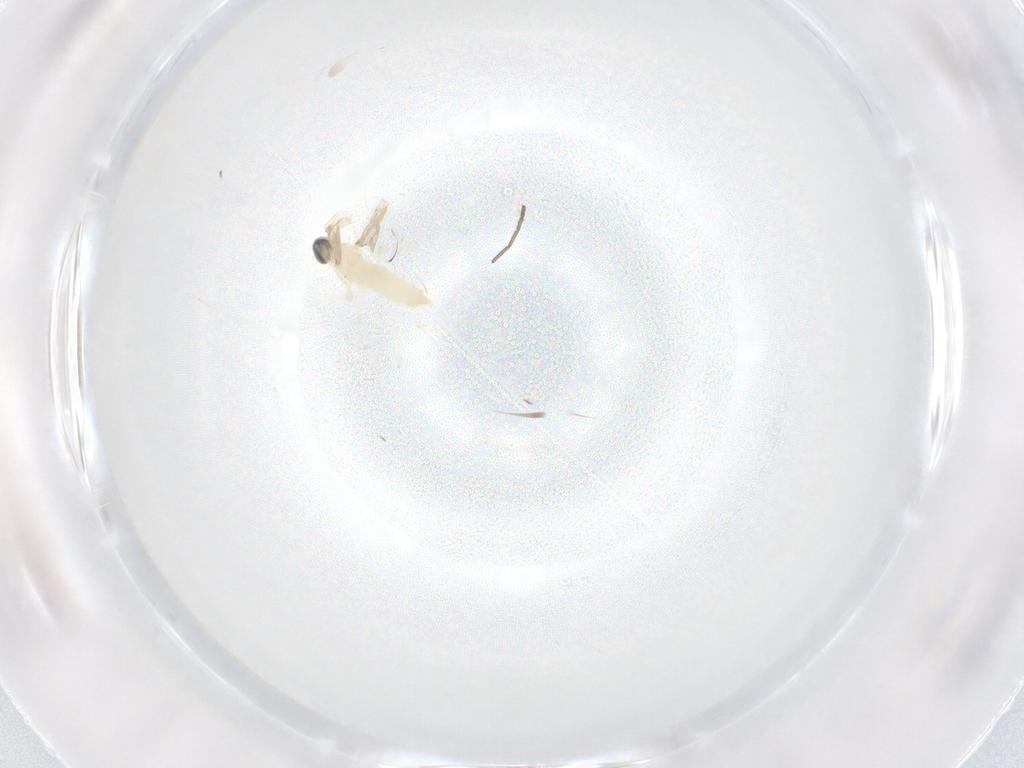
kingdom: Animalia
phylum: Arthropoda
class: Insecta
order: Diptera
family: Cecidomyiidae
